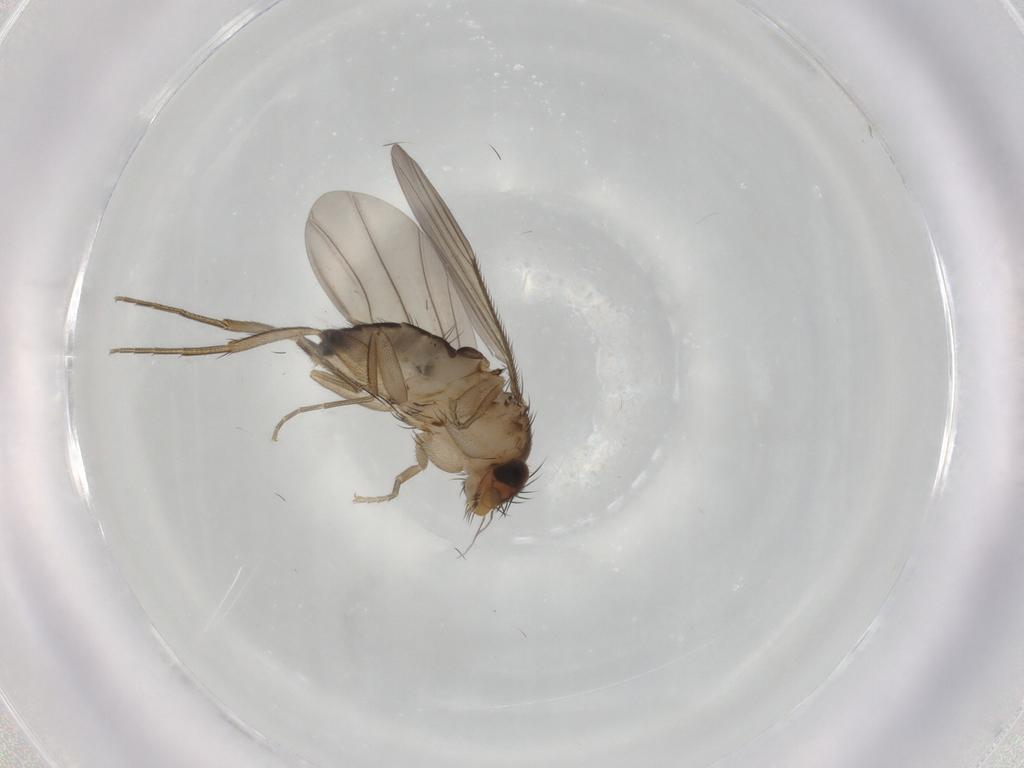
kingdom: Animalia
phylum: Arthropoda
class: Insecta
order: Diptera
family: Phoridae
